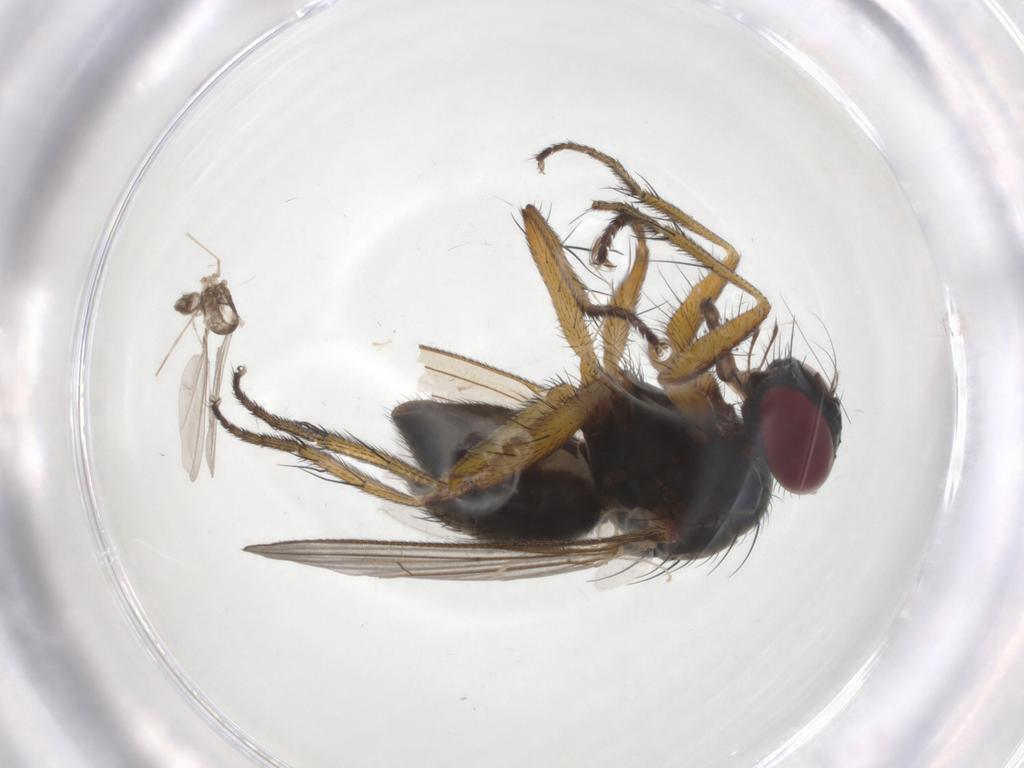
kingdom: Animalia
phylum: Arthropoda
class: Insecta
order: Diptera
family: Muscidae
